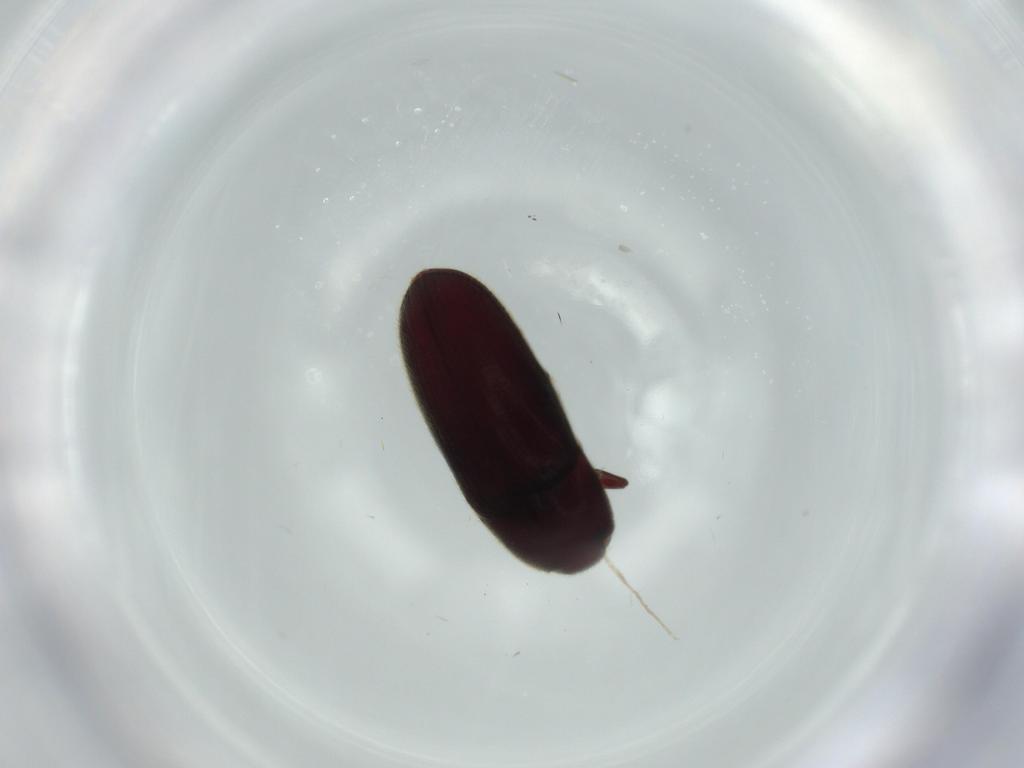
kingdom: Animalia
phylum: Arthropoda
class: Insecta
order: Coleoptera
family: Throscidae
